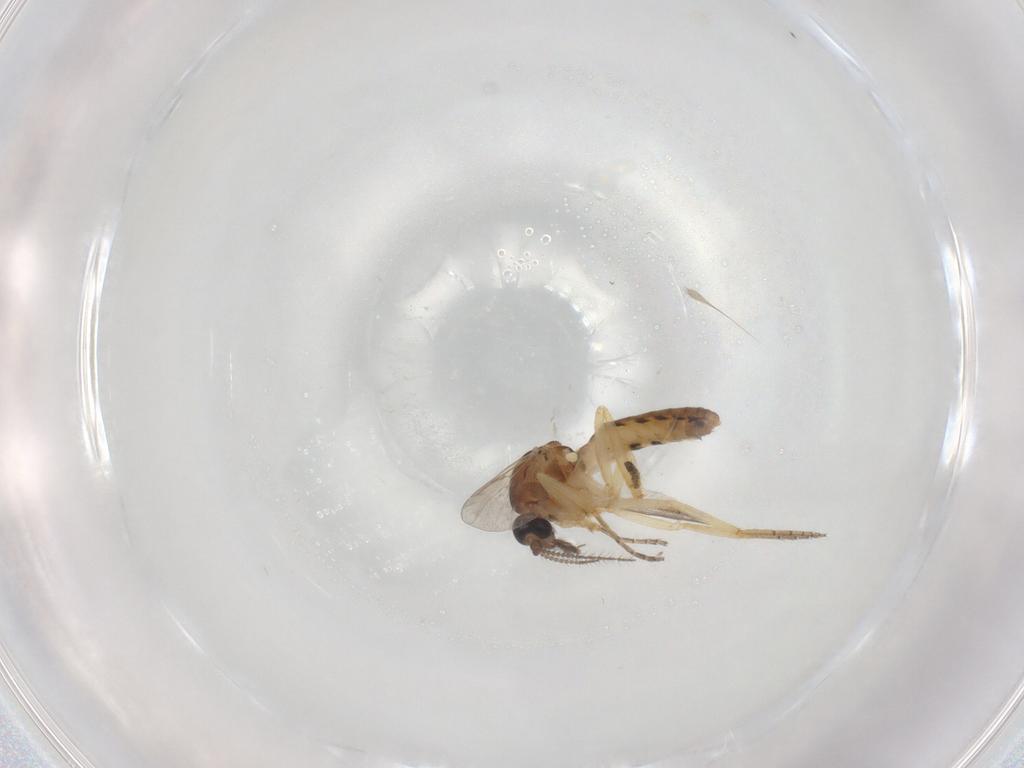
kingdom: Animalia
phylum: Arthropoda
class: Insecta
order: Diptera
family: Ceratopogonidae
